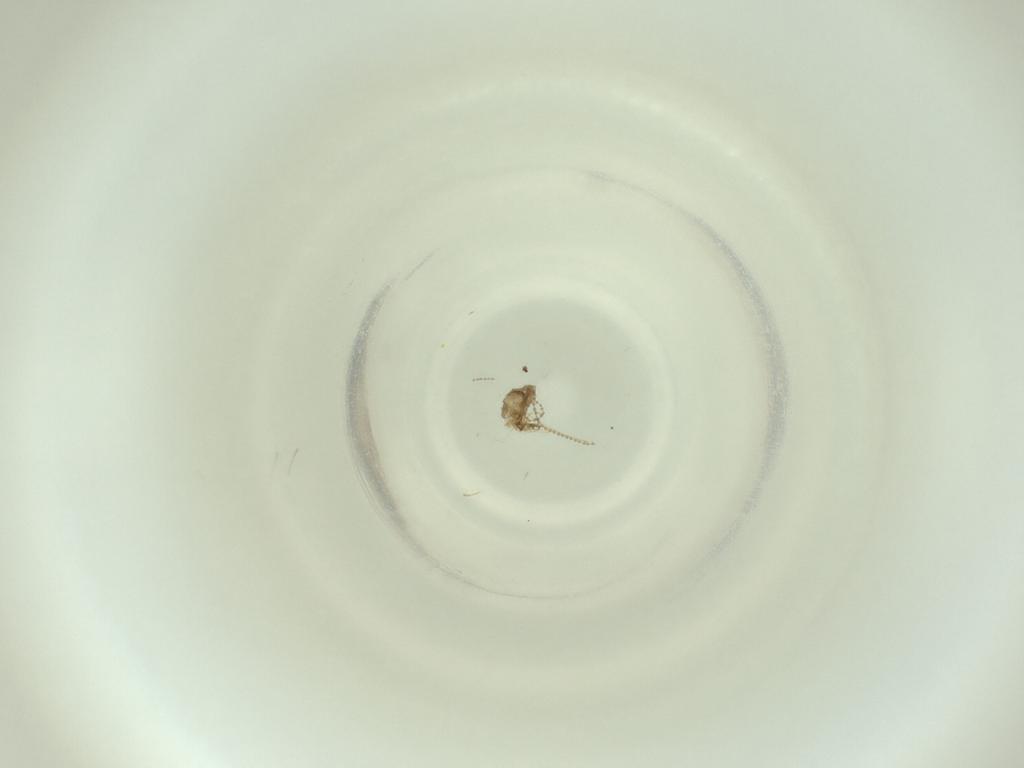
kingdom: Animalia
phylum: Arthropoda
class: Insecta
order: Diptera
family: Cecidomyiidae
